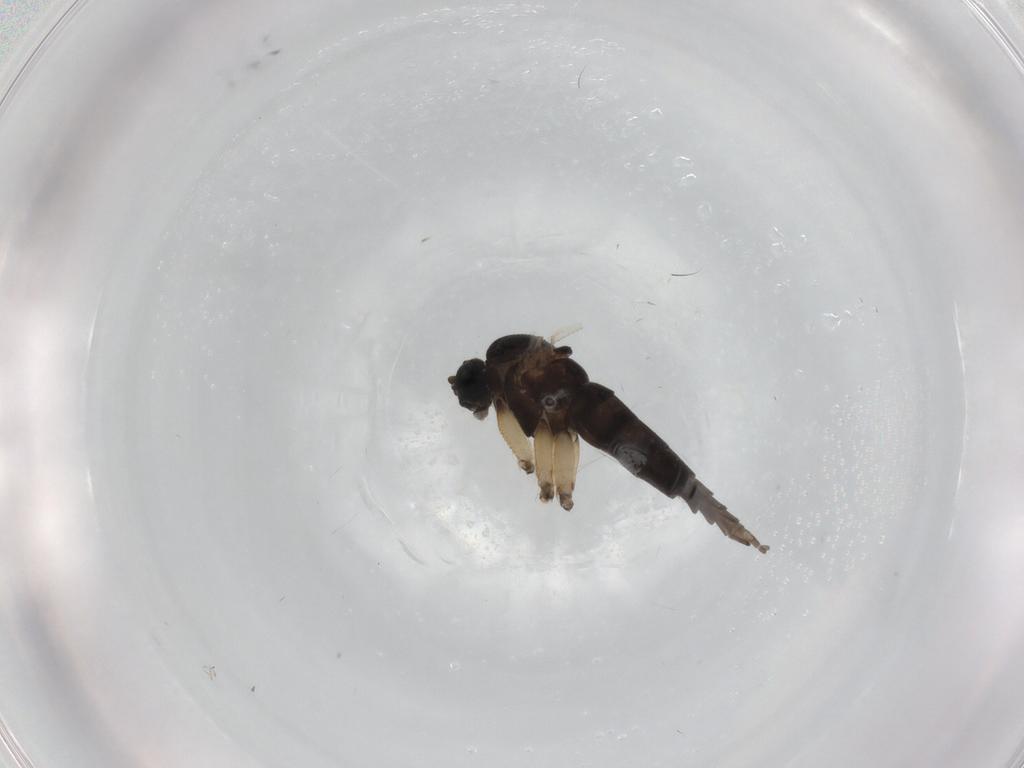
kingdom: Animalia
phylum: Arthropoda
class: Insecta
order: Diptera
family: Sciaridae
